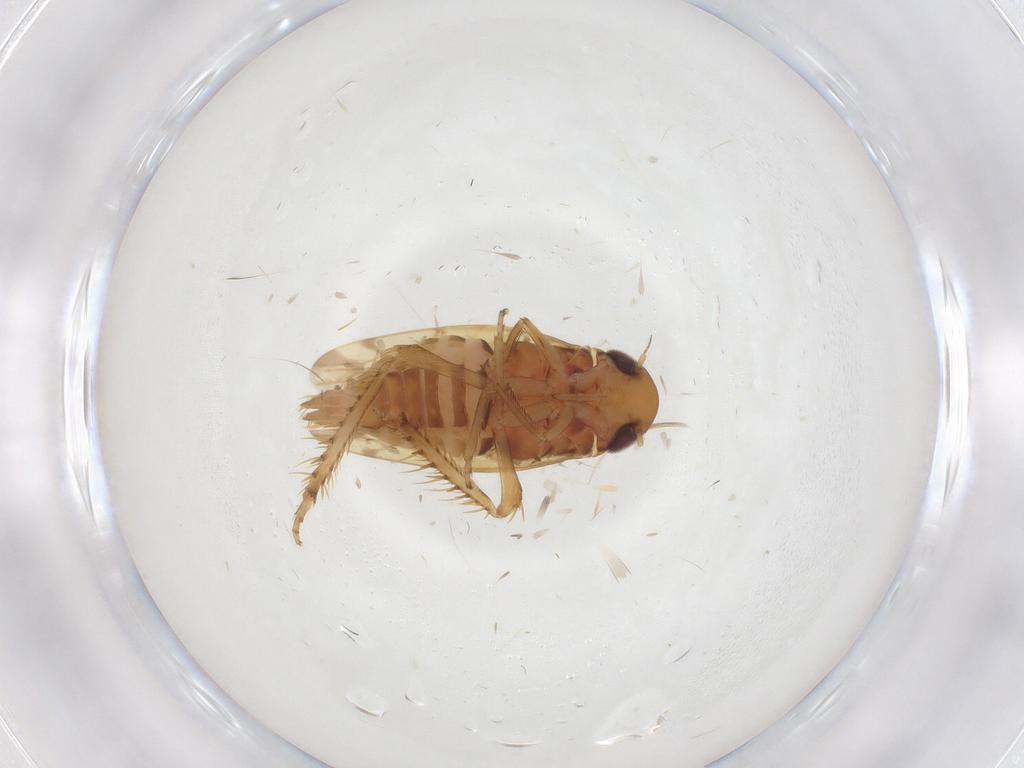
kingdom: Animalia
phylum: Arthropoda
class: Insecta
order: Hemiptera
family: Cicadellidae
